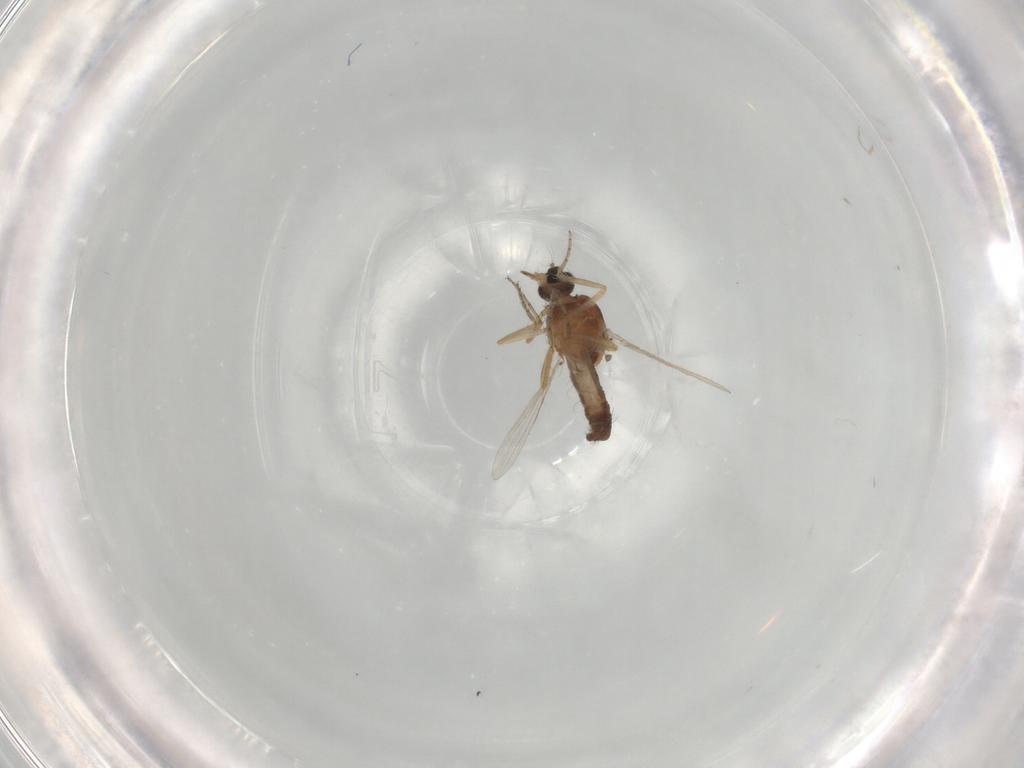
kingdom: Animalia
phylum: Arthropoda
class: Insecta
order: Diptera
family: Ceratopogonidae
